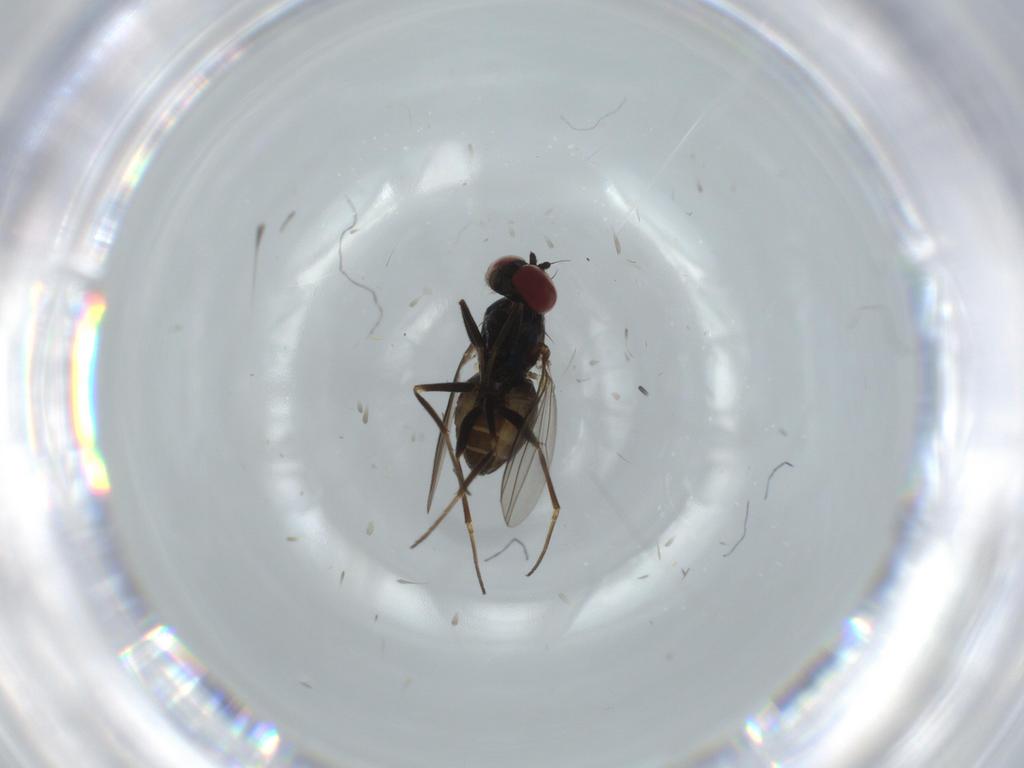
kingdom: Animalia
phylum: Arthropoda
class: Insecta
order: Diptera
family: Dolichopodidae
